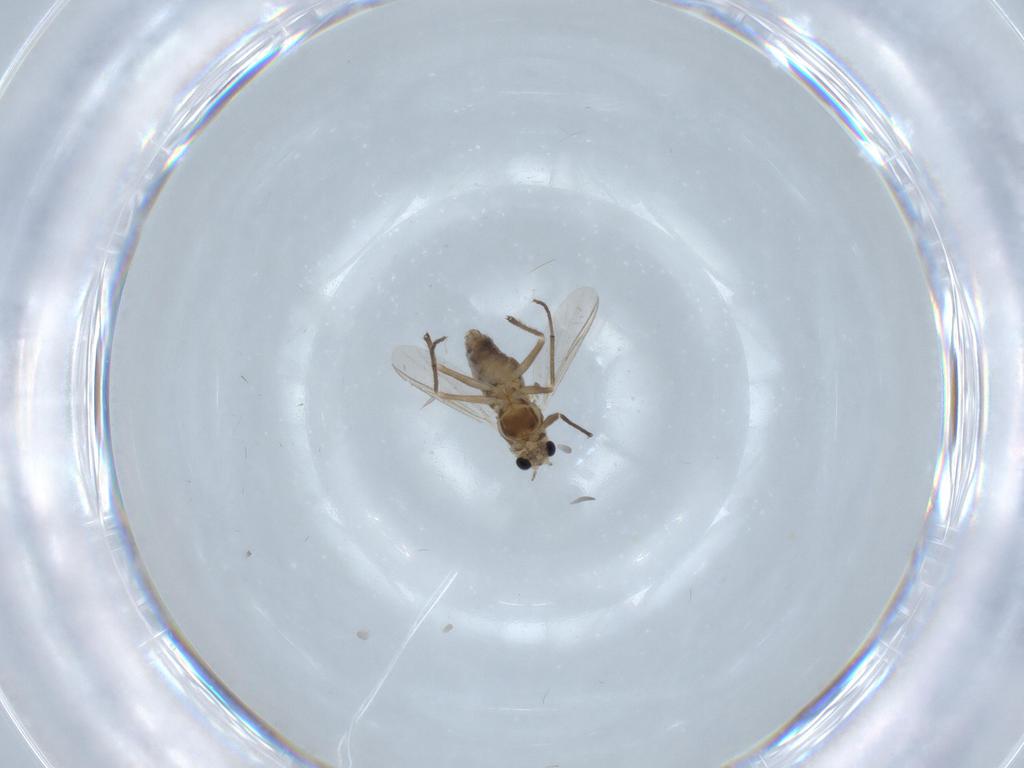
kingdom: Animalia
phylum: Arthropoda
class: Insecta
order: Diptera
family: Chironomidae
